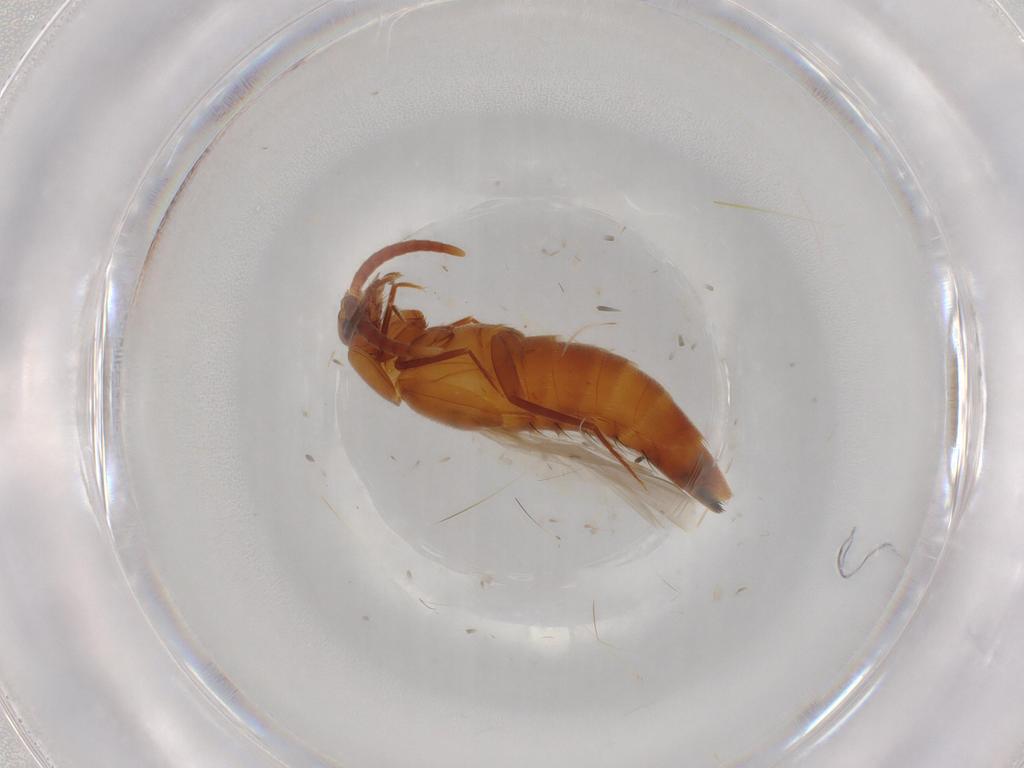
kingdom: Animalia
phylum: Arthropoda
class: Insecta
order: Coleoptera
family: Staphylinidae
